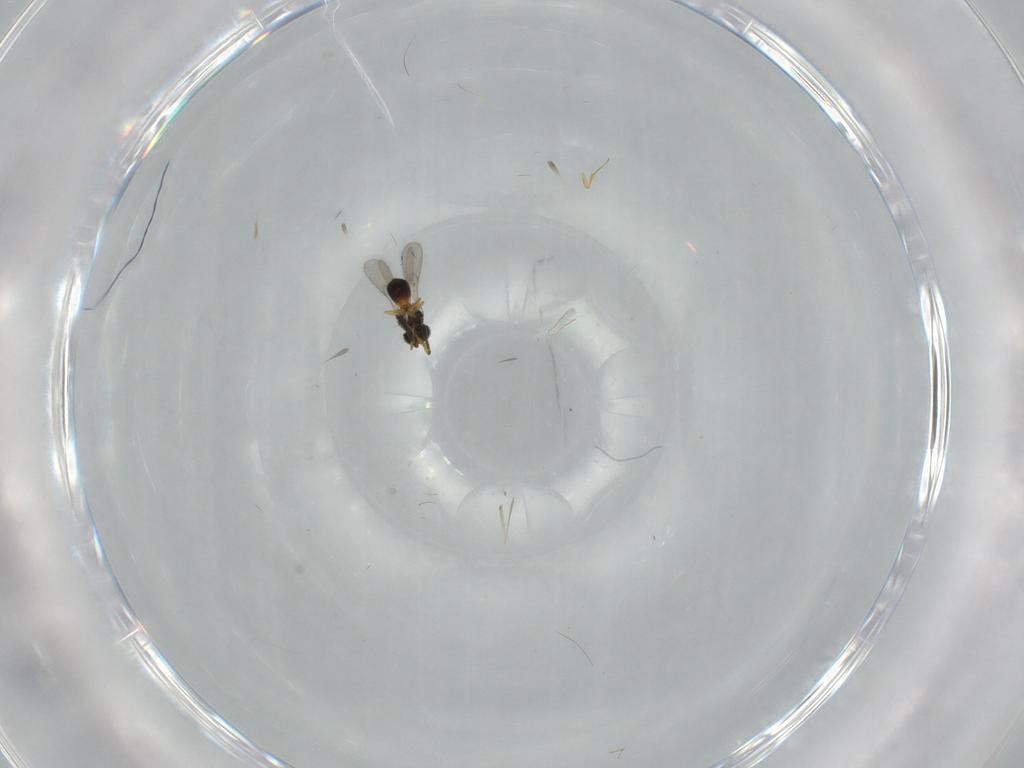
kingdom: Animalia
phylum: Arthropoda
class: Insecta
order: Hymenoptera
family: Scelionidae
